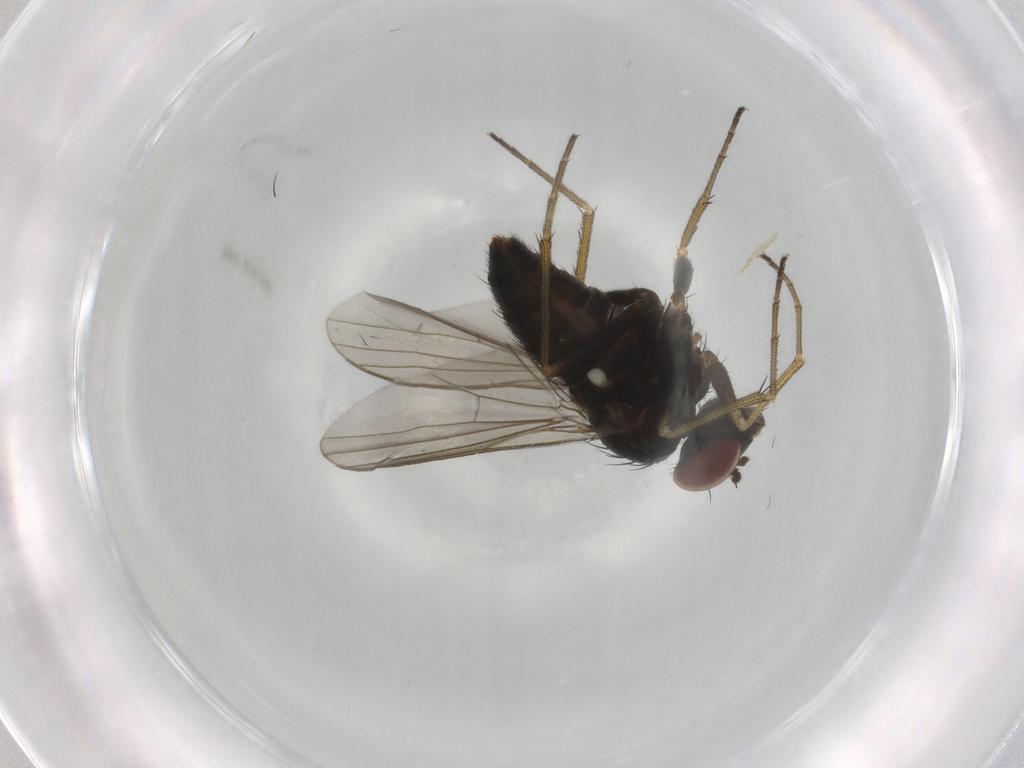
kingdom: Animalia
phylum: Arthropoda
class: Insecta
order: Diptera
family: Dolichopodidae
